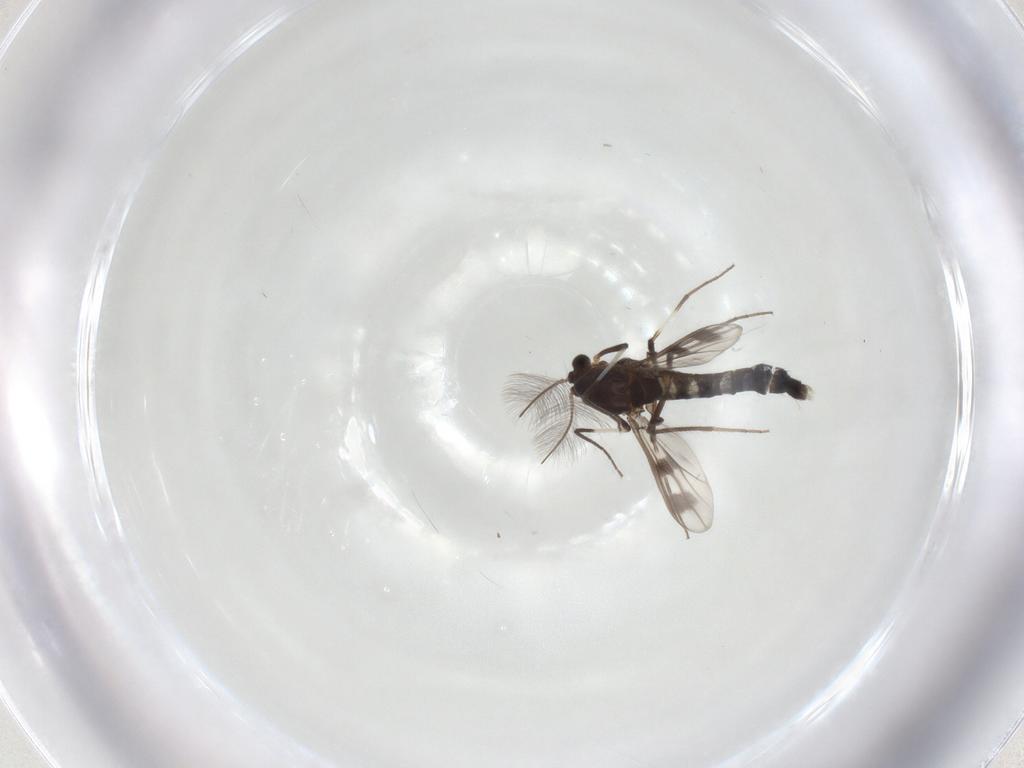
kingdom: Animalia
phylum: Arthropoda
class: Insecta
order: Diptera
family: Chironomidae
